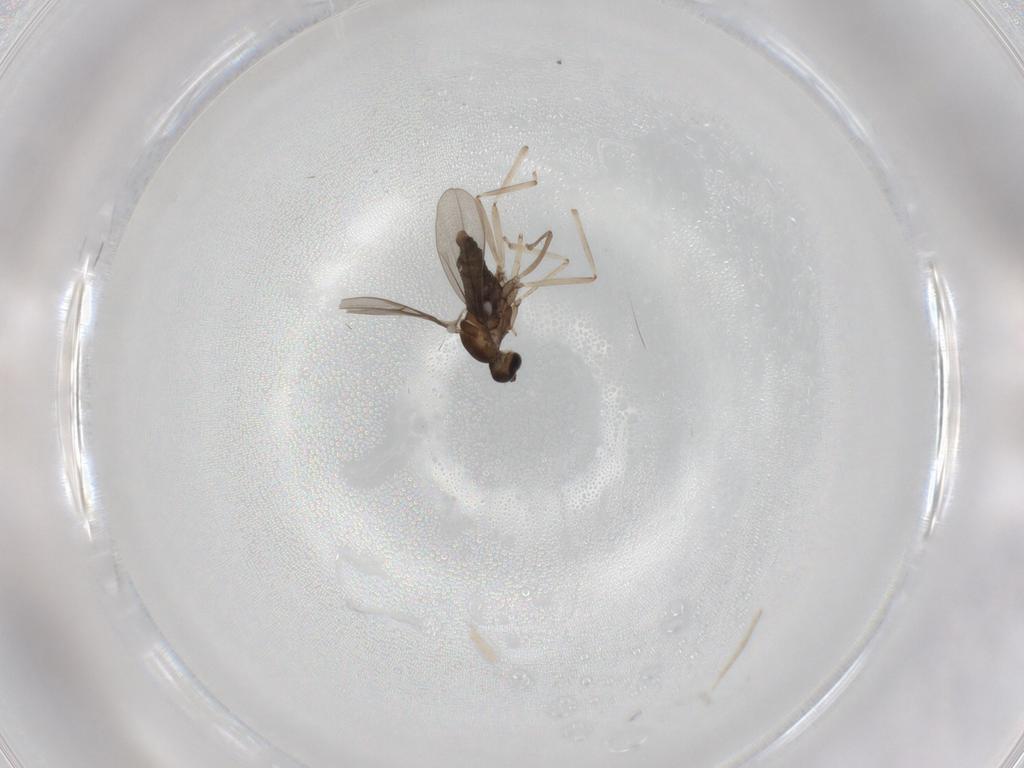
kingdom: Animalia
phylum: Arthropoda
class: Insecta
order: Diptera
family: Cecidomyiidae
